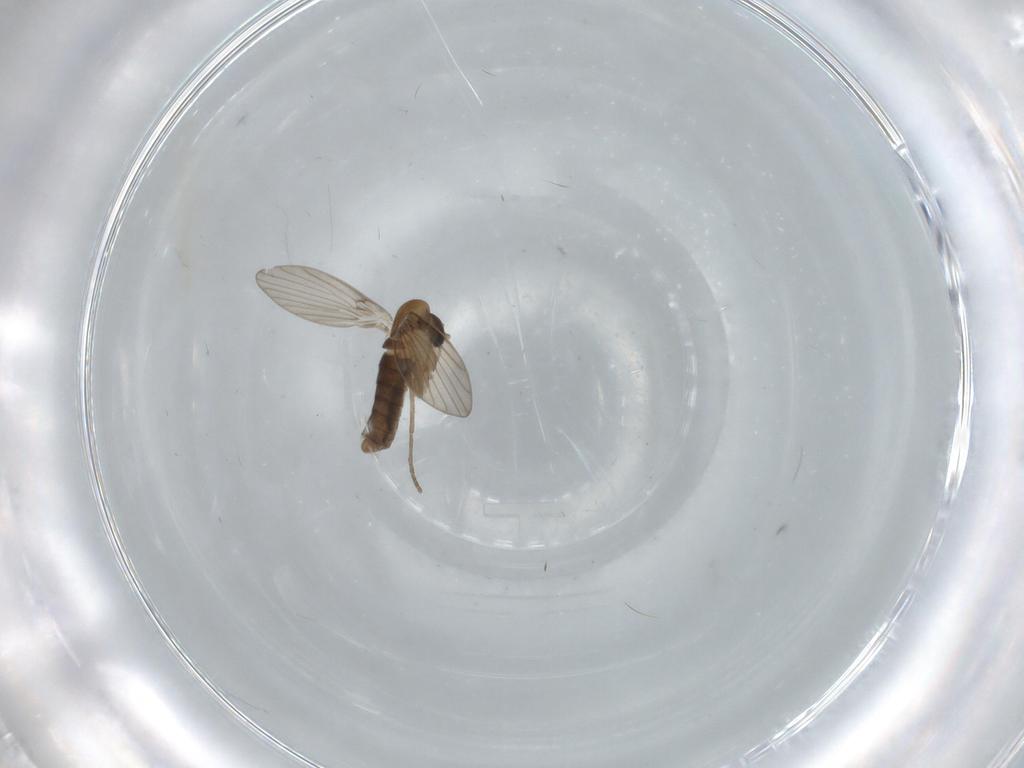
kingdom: Animalia
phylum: Arthropoda
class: Insecta
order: Diptera
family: Psychodidae
